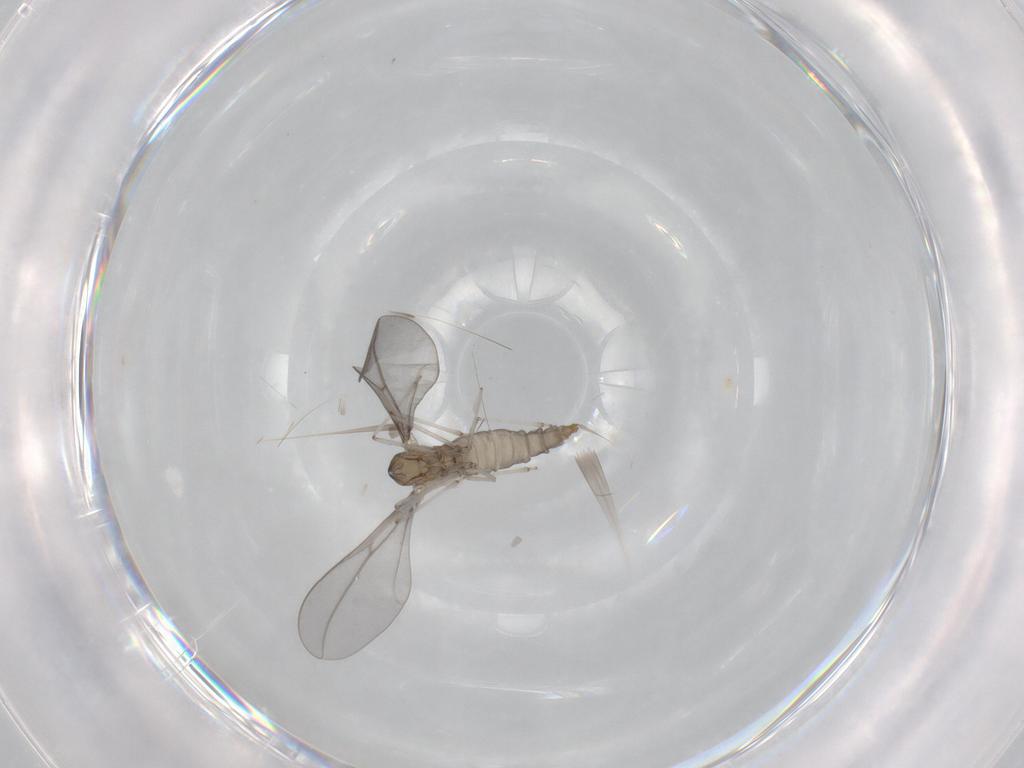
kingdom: Animalia
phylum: Arthropoda
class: Insecta
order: Diptera
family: Cecidomyiidae
